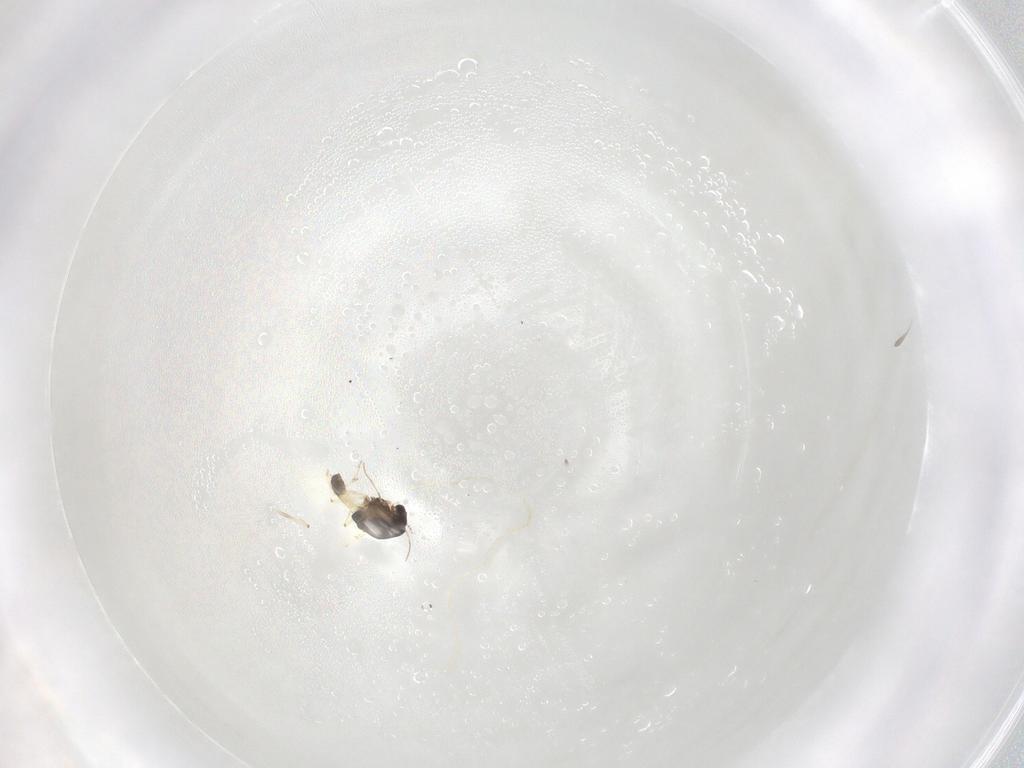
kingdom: Animalia
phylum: Arthropoda
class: Insecta
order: Diptera
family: Chironomidae
